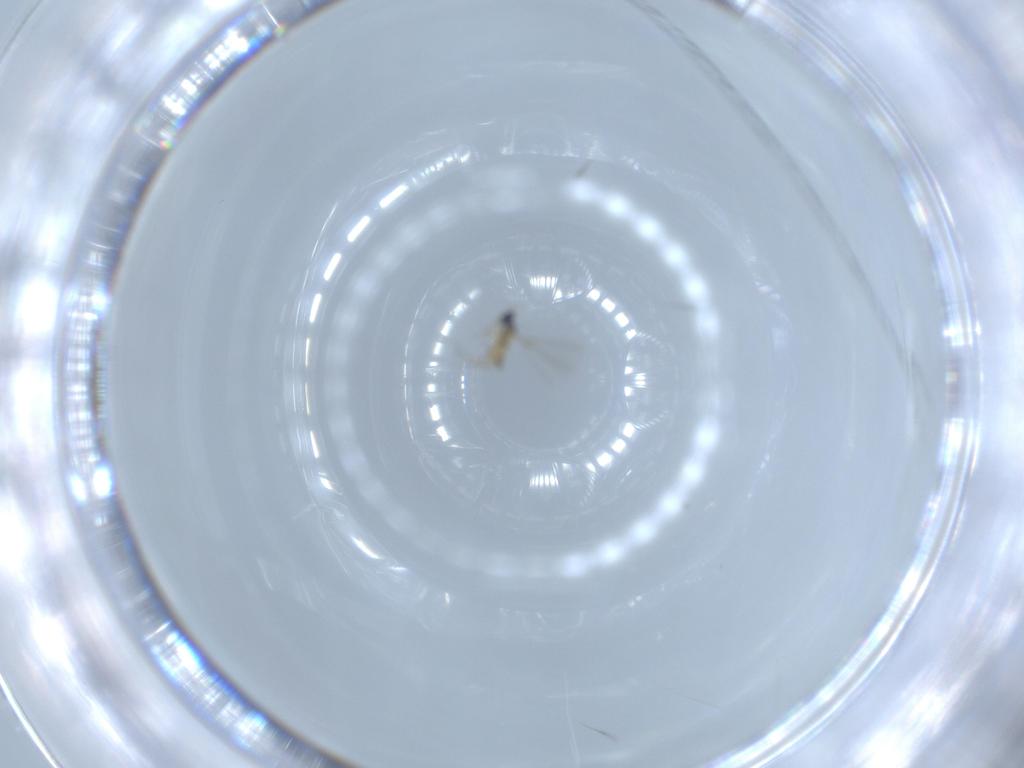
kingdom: Animalia
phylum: Arthropoda
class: Insecta
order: Hymenoptera
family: Mymaridae
